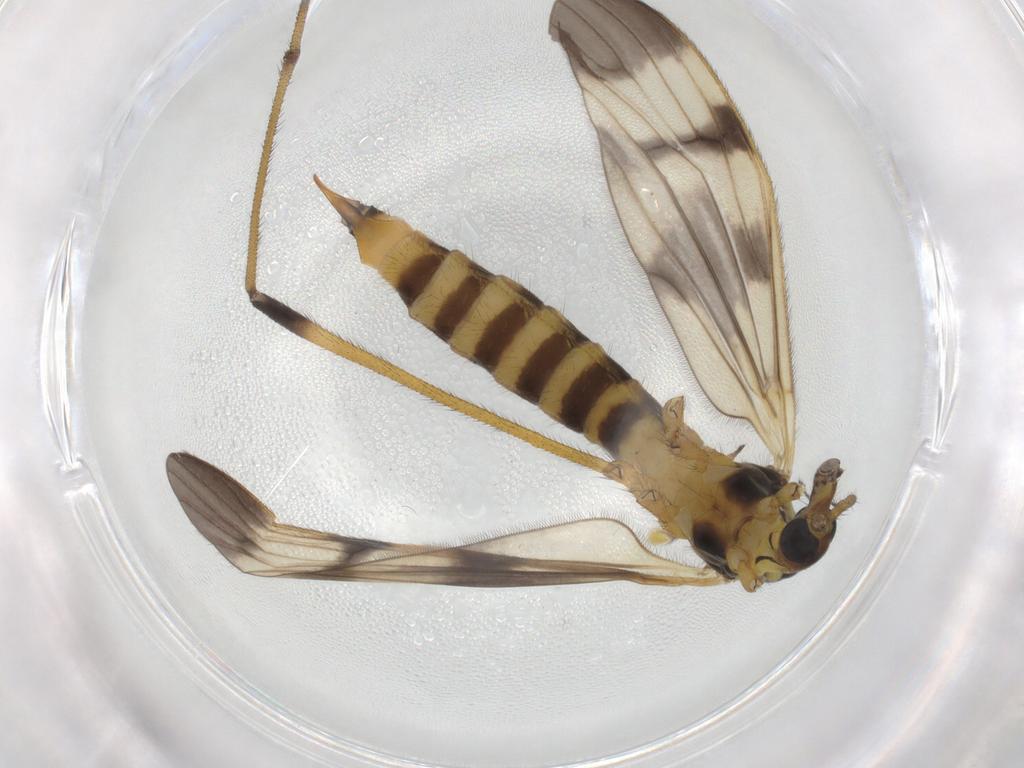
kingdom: Animalia
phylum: Arthropoda
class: Insecta
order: Diptera
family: Limoniidae
